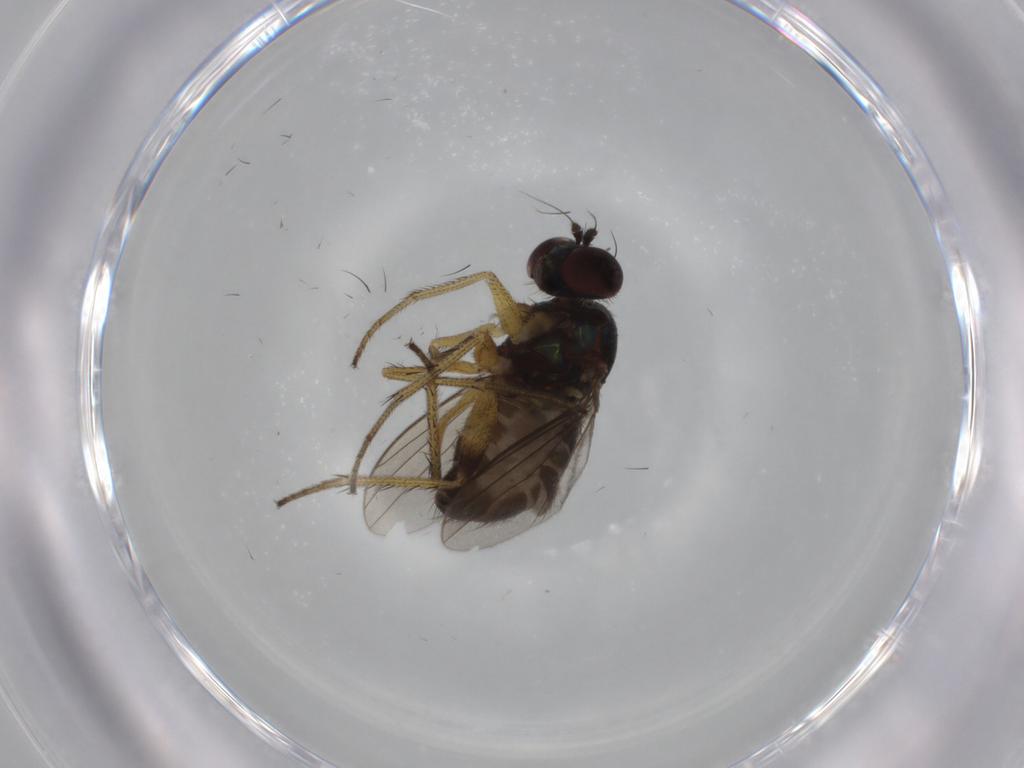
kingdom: Animalia
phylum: Arthropoda
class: Insecta
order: Diptera
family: Dolichopodidae
